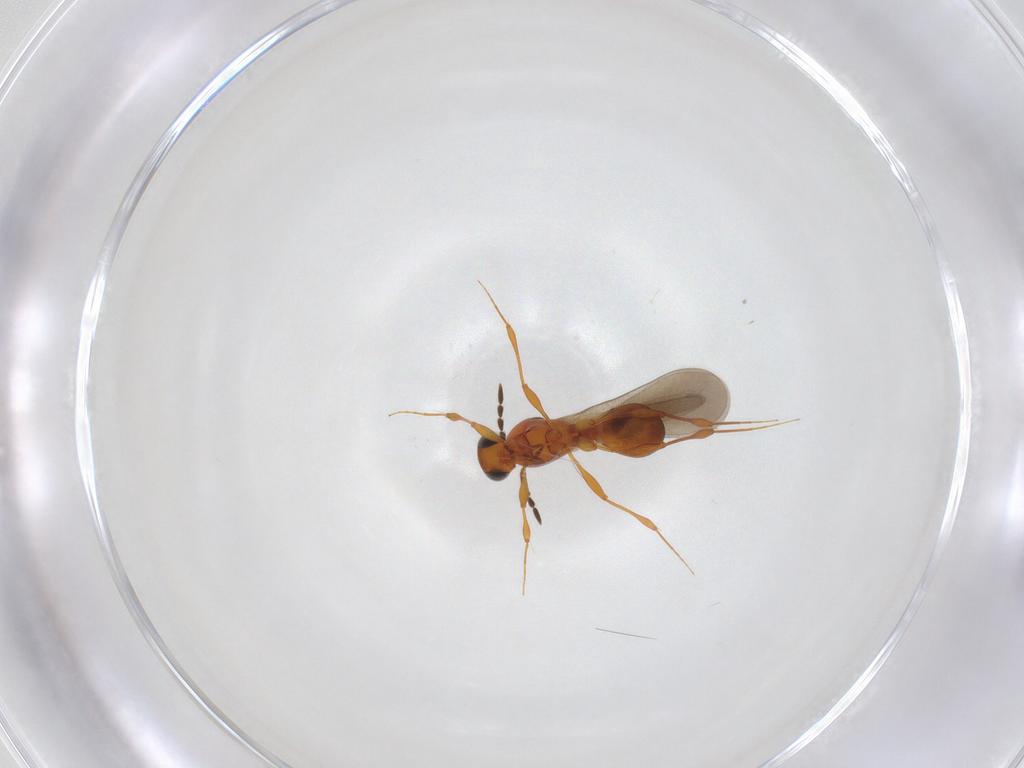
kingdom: Animalia
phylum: Arthropoda
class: Insecta
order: Hymenoptera
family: Platygastridae
